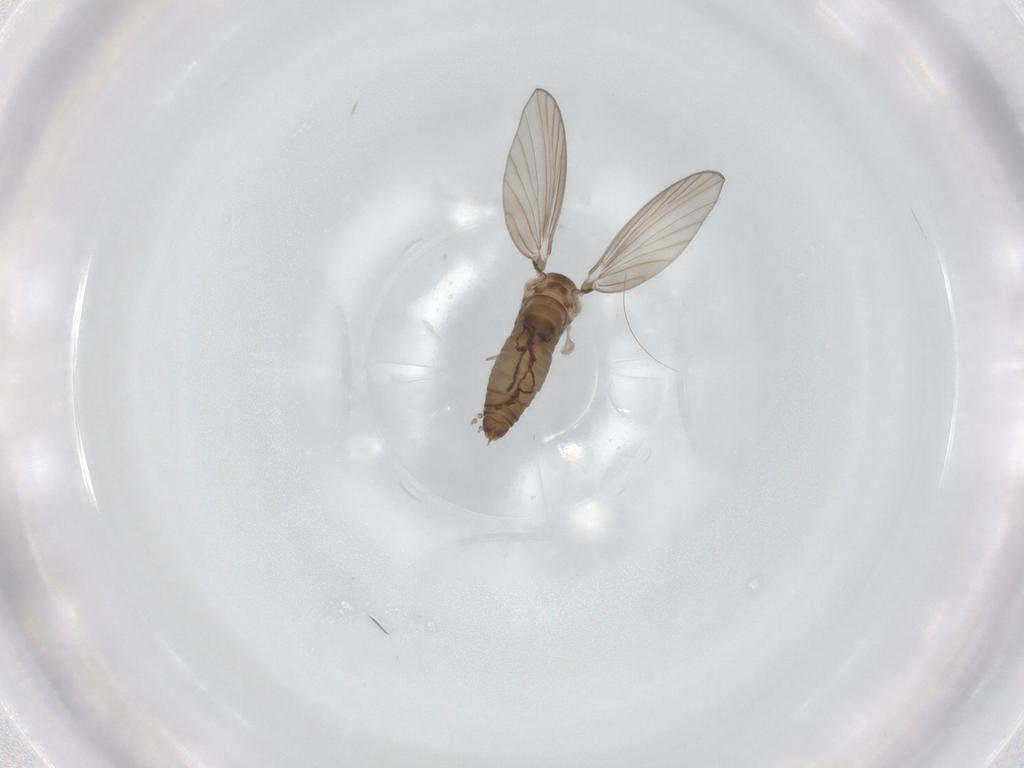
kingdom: Animalia
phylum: Arthropoda
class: Insecta
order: Diptera
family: Psychodidae
